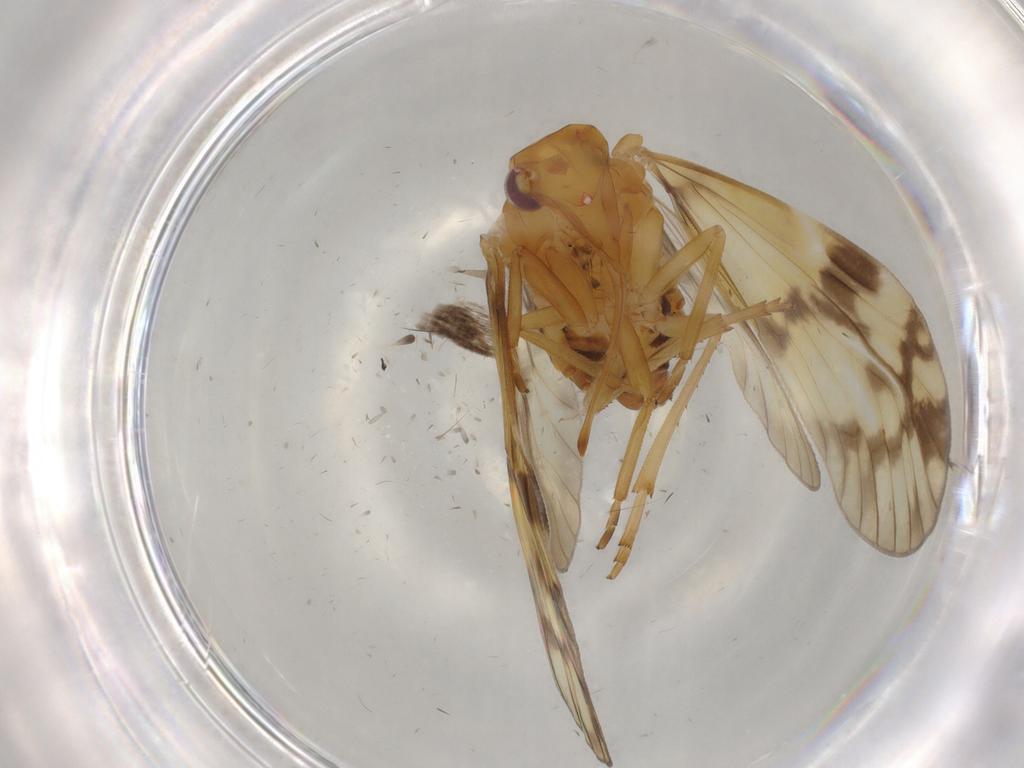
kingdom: Animalia
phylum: Arthropoda
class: Insecta
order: Hemiptera
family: Cixiidae
